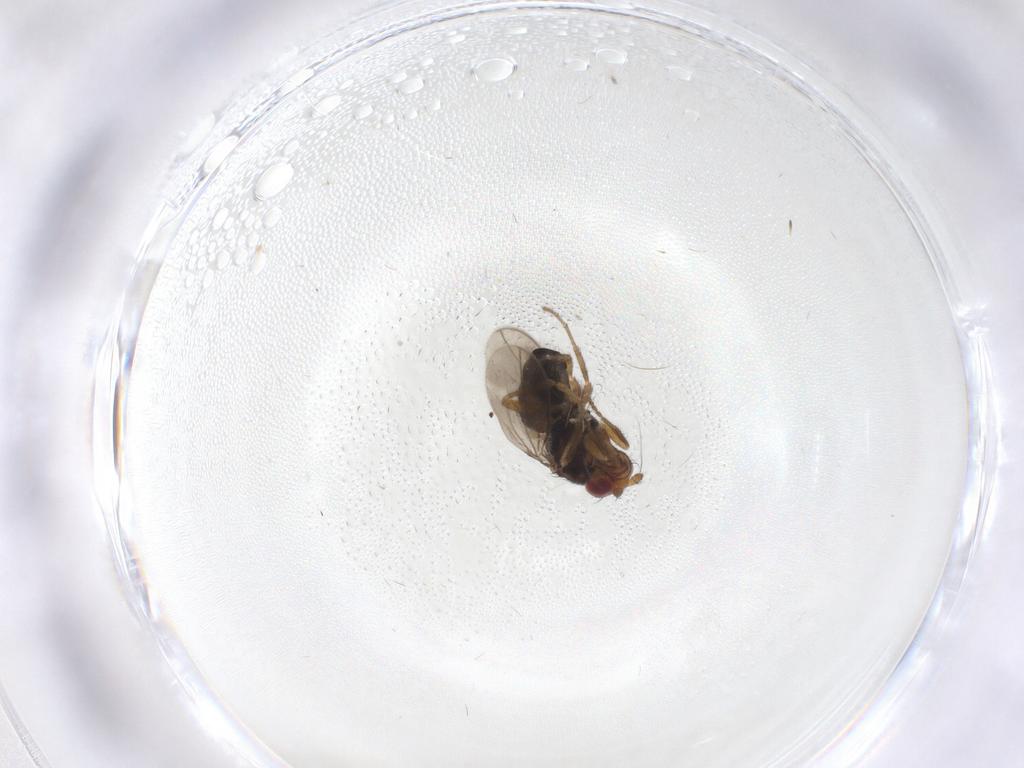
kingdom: Animalia
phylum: Arthropoda
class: Insecta
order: Diptera
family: Sphaeroceridae
